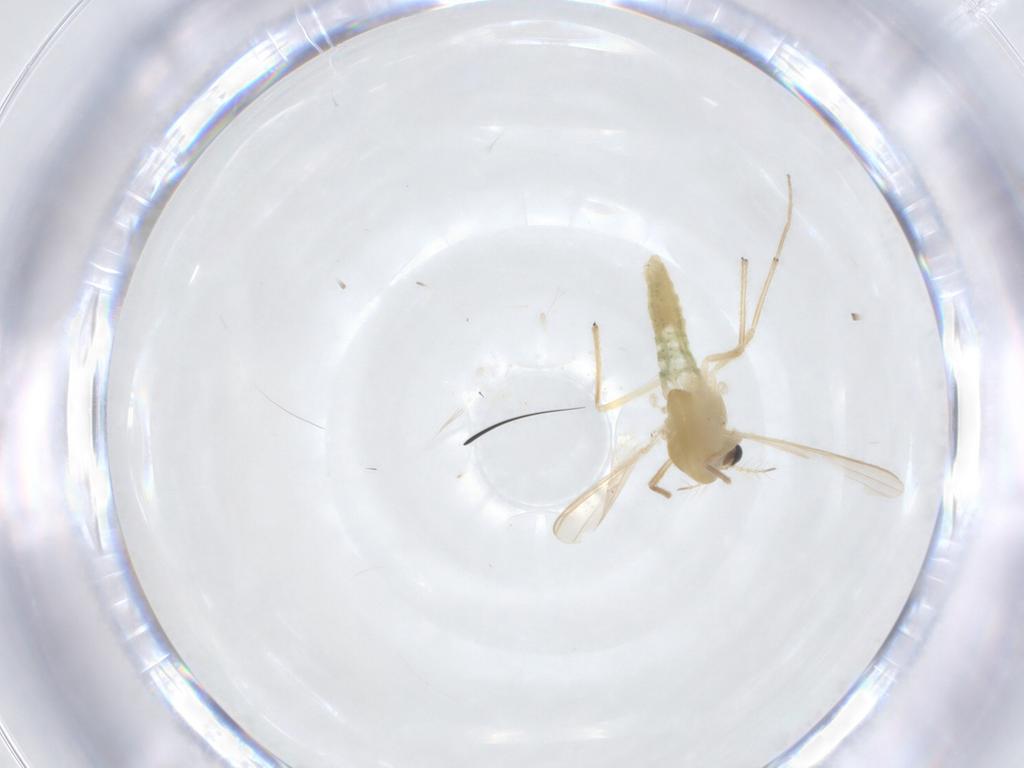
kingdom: Animalia
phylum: Arthropoda
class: Insecta
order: Diptera
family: Chironomidae
